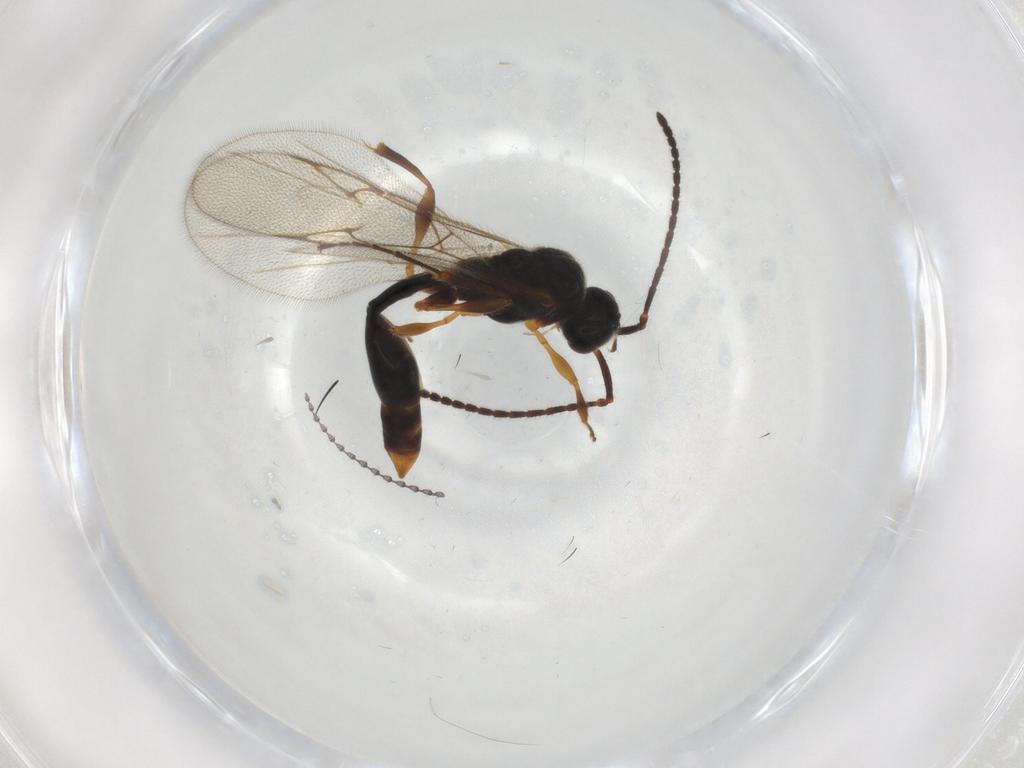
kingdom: Animalia
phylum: Arthropoda
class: Insecta
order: Hymenoptera
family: Diapriidae
